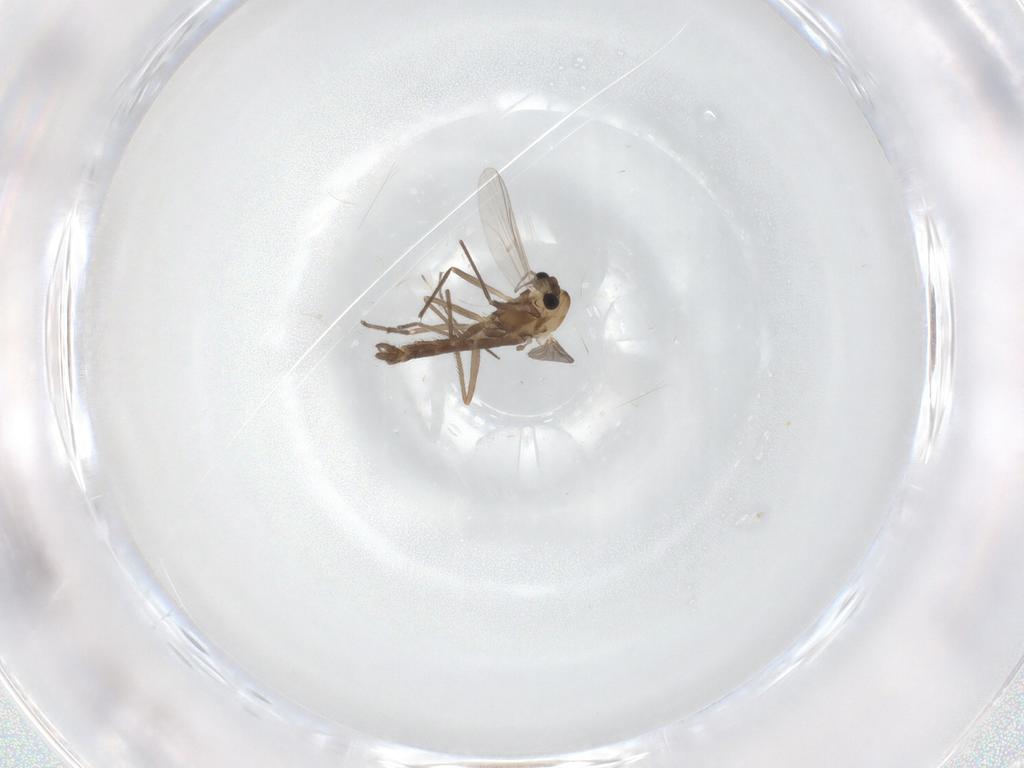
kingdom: Animalia
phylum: Arthropoda
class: Insecta
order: Diptera
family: Chironomidae
